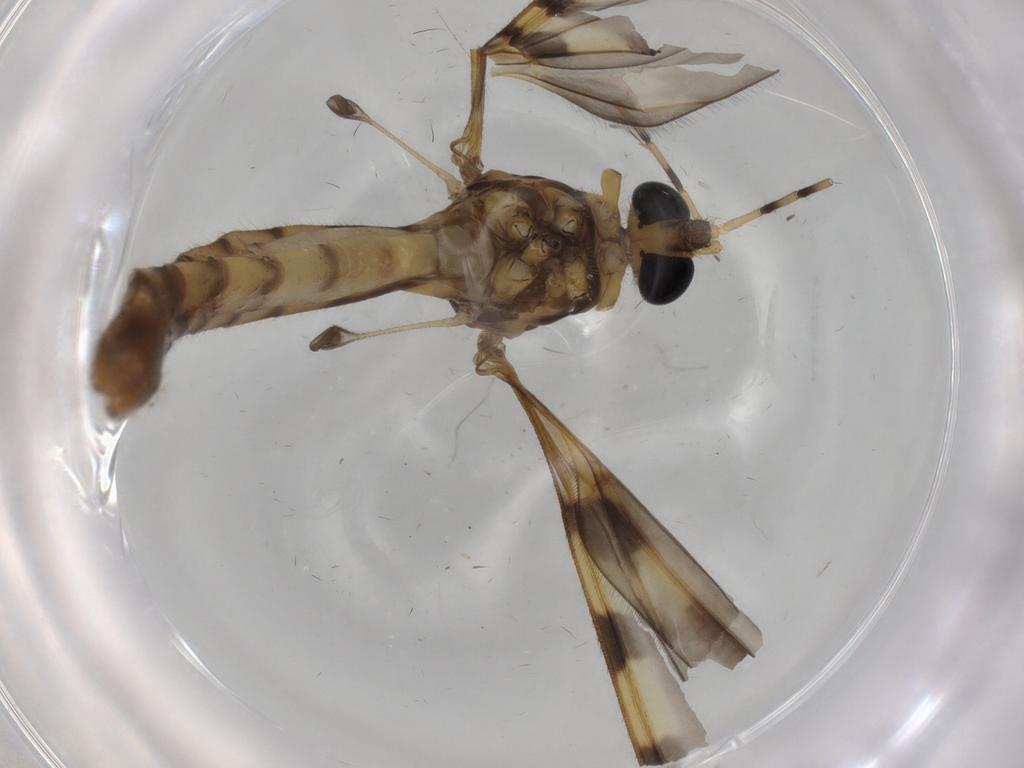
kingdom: Animalia
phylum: Arthropoda
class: Insecta
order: Diptera
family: Cecidomyiidae
